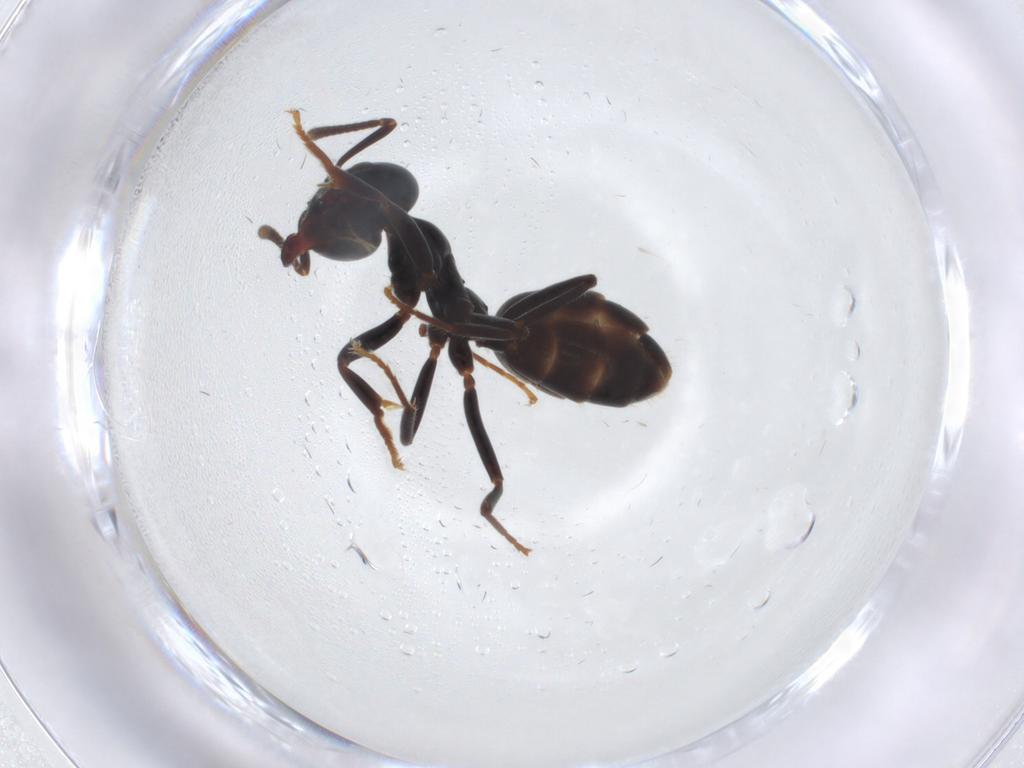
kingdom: Animalia
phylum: Arthropoda
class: Insecta
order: Hymenoptera
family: Formicidae
